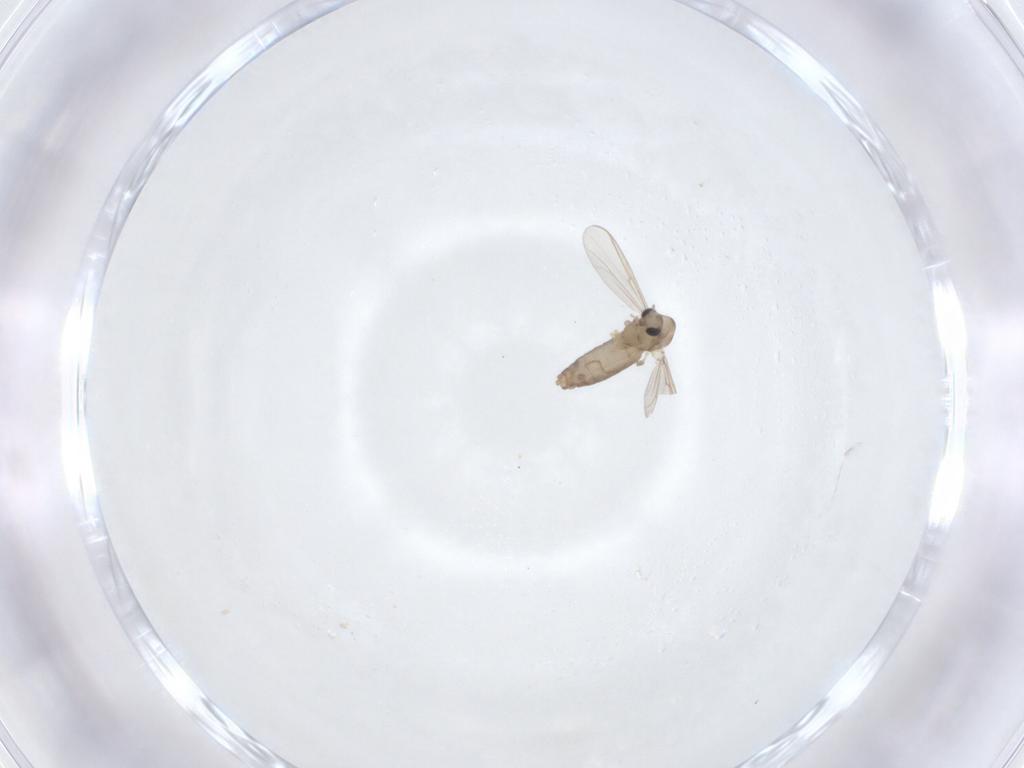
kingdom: Animalia
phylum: Arthropoda
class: Insecta
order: Diptera
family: Chironomidae
